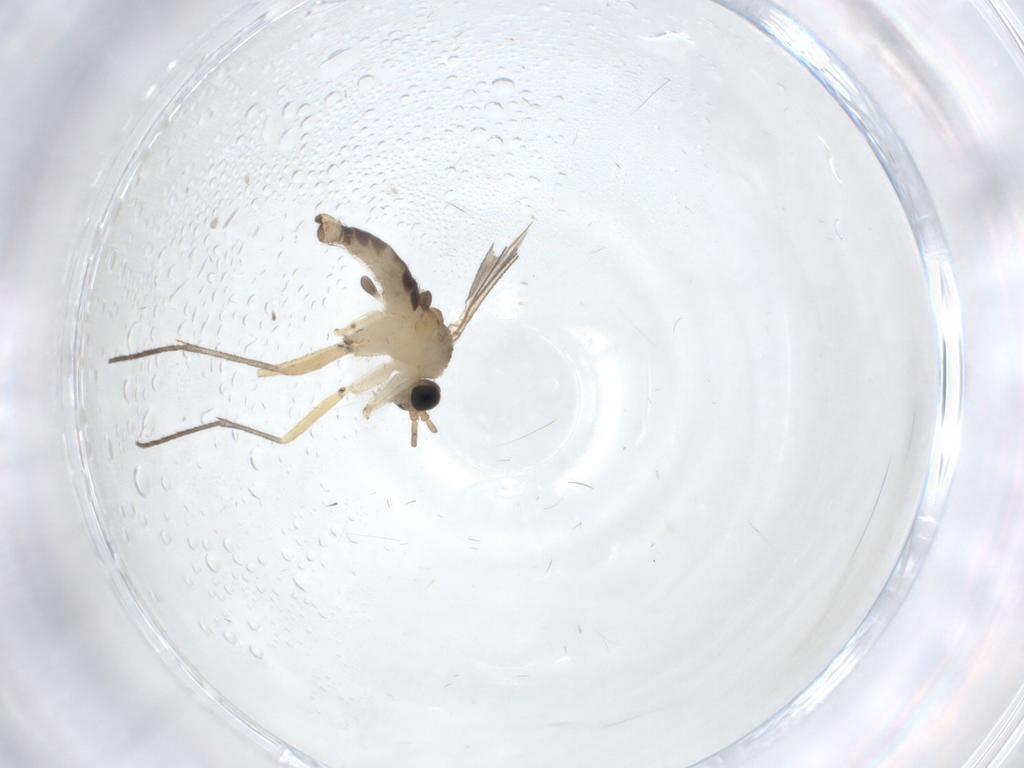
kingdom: Animalia
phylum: Arthropoda
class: Insecta
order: Diptera
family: Sciaridae
